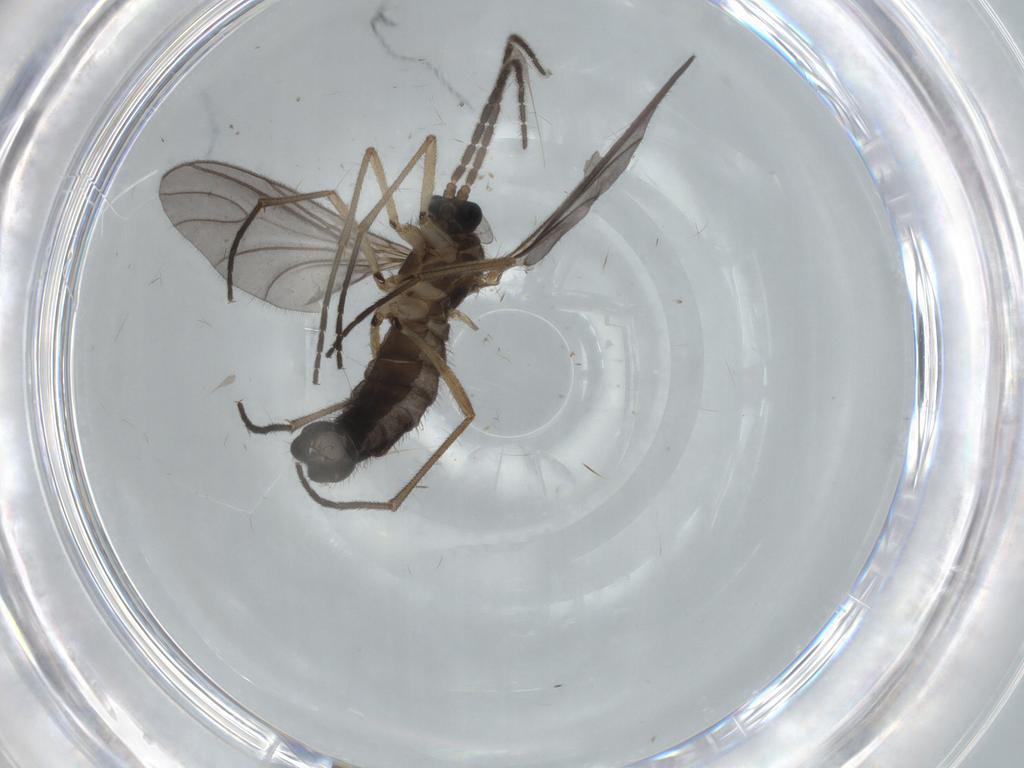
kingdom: Animalia
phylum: Arthropoda
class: Insecta
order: Diptera
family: Sciaridae
